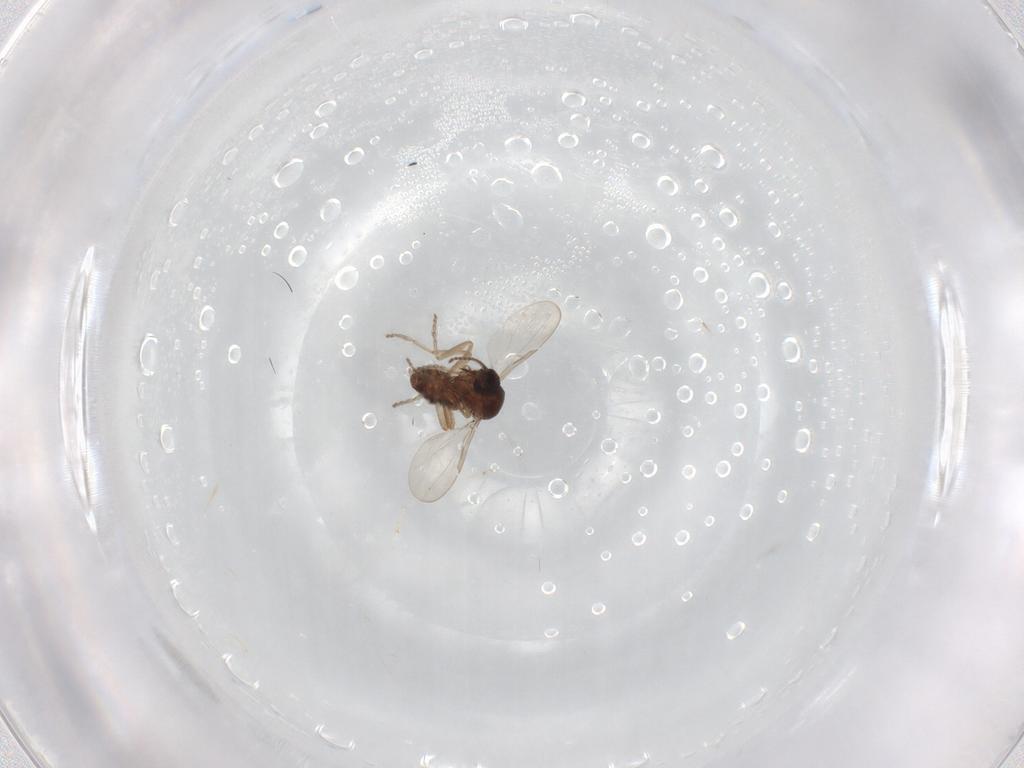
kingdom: Animalia
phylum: Arthropoda
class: Insecta
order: Diptera
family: Ceratopogonidae
